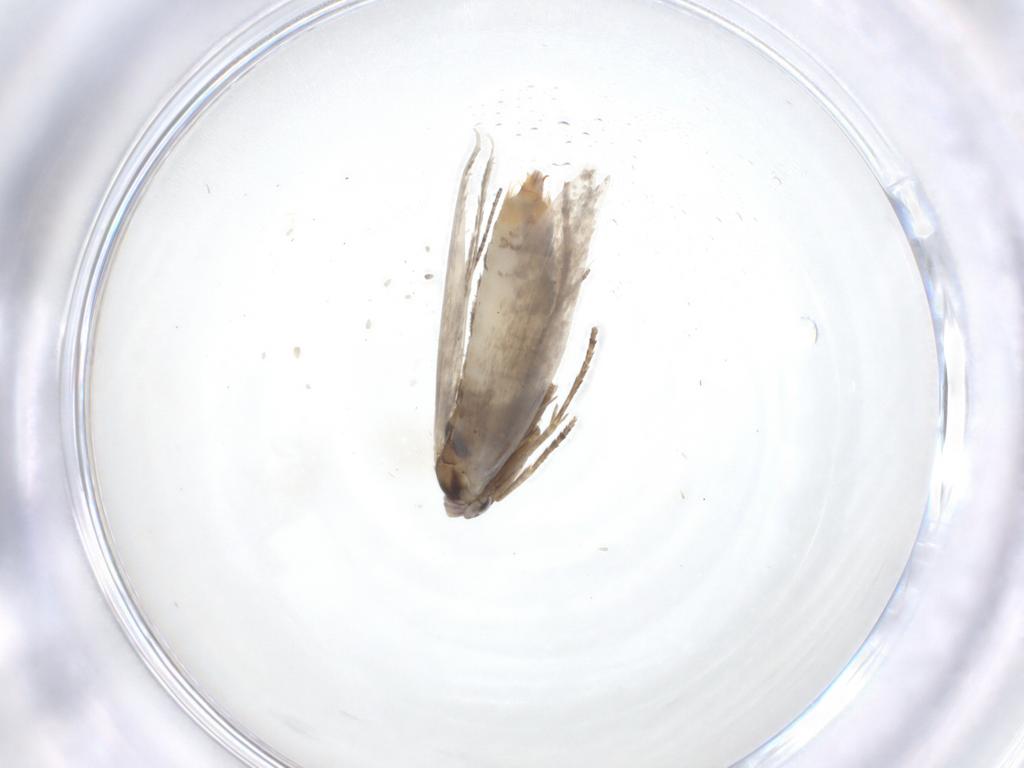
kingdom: Animalia
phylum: Arthropoda
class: Insecta
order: Lepidoptera
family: Bucculatricidae
